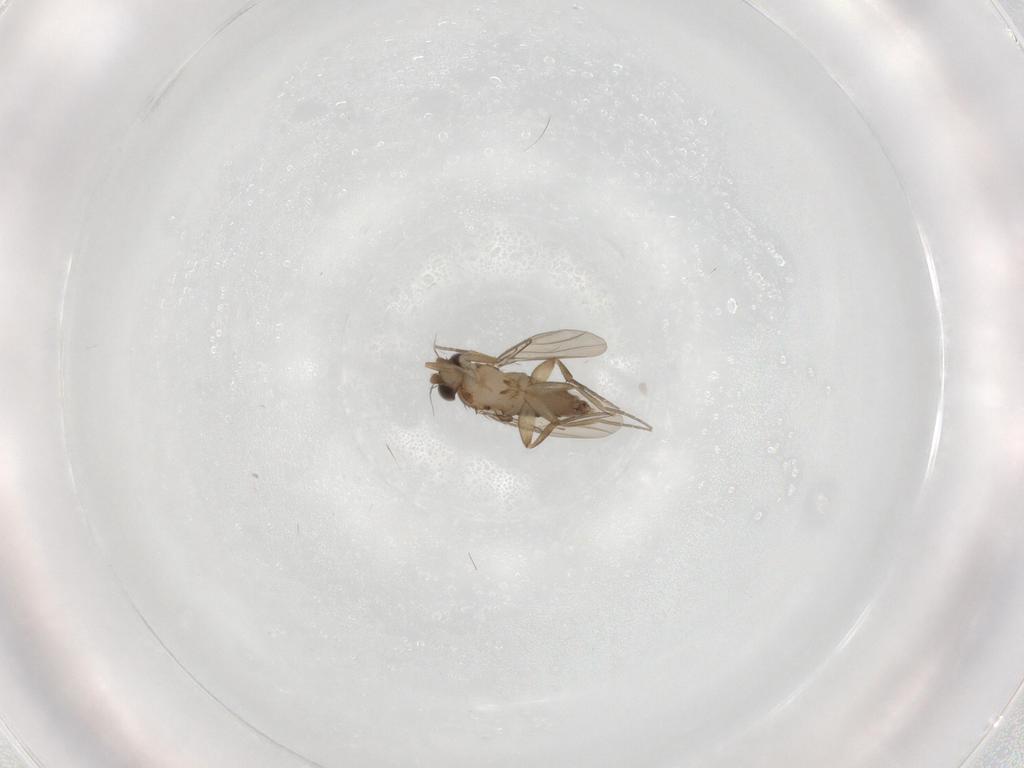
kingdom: Animalia
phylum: Arthropoda
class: Insecta
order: Diptera
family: Phoridae
